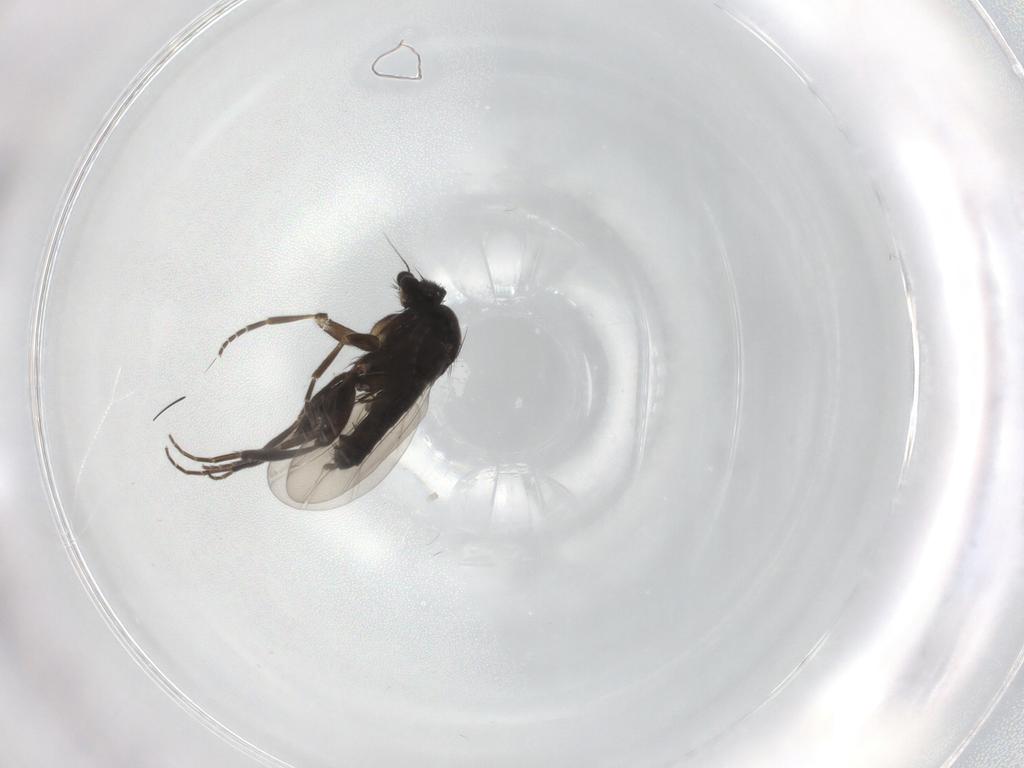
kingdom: Animalia
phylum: Arthropoda
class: Insecta
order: Diptera
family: Phoridae
